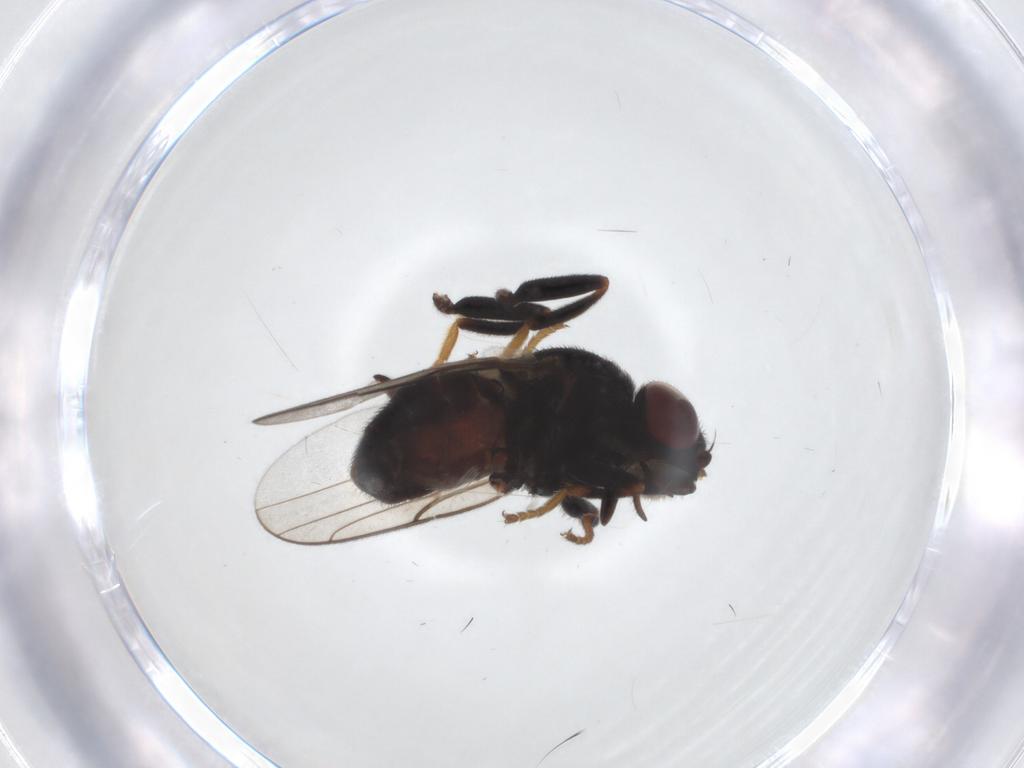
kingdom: Animalia
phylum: Arthropoda
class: Insecta
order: Diptera
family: Chloropidae
